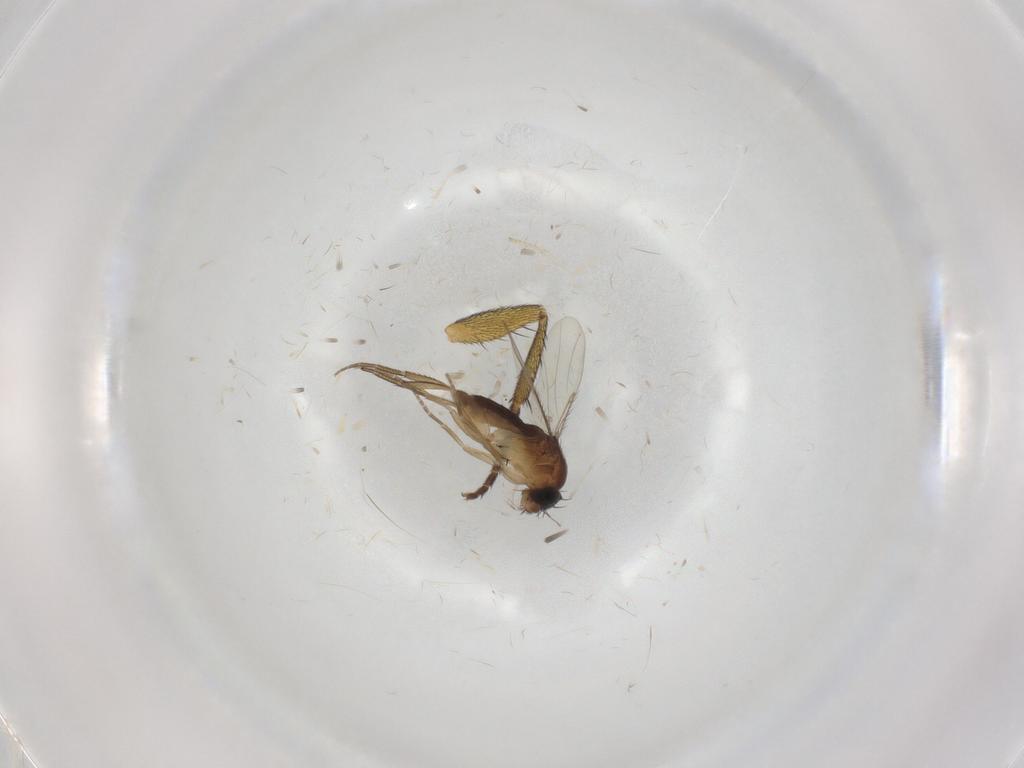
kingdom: Animalia
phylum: Arthropoda
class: Insecta
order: Diptera
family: Phoridae
